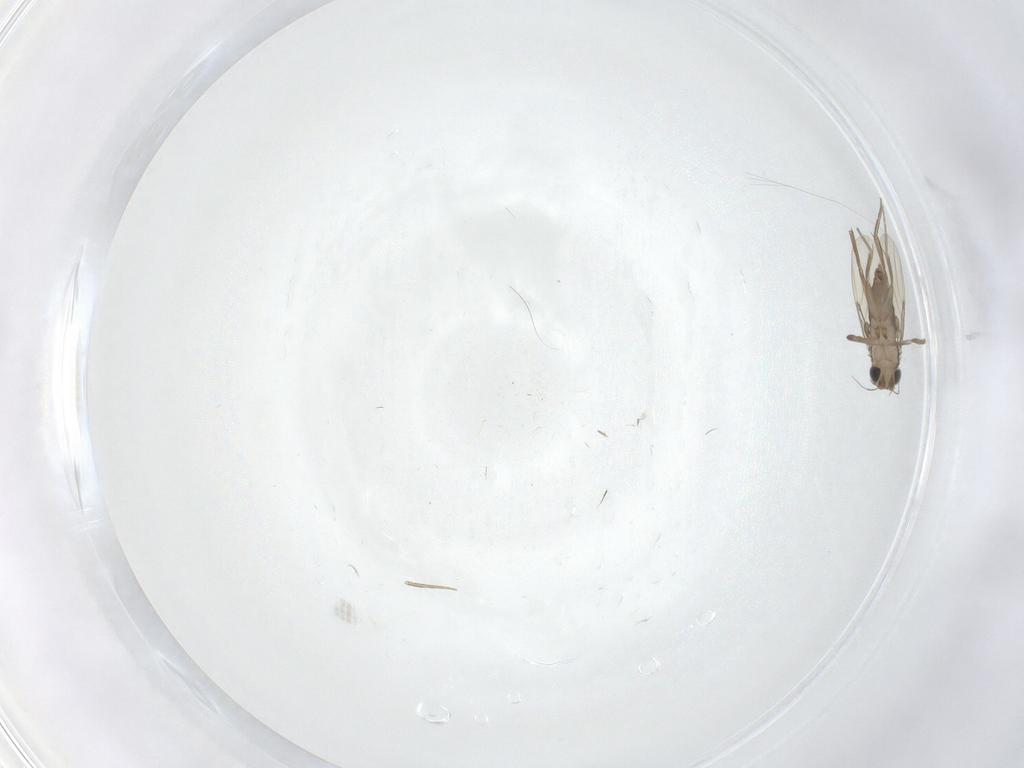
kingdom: Animalia
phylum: Arthropoda
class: Insecta
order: Diptera
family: Phoridae
